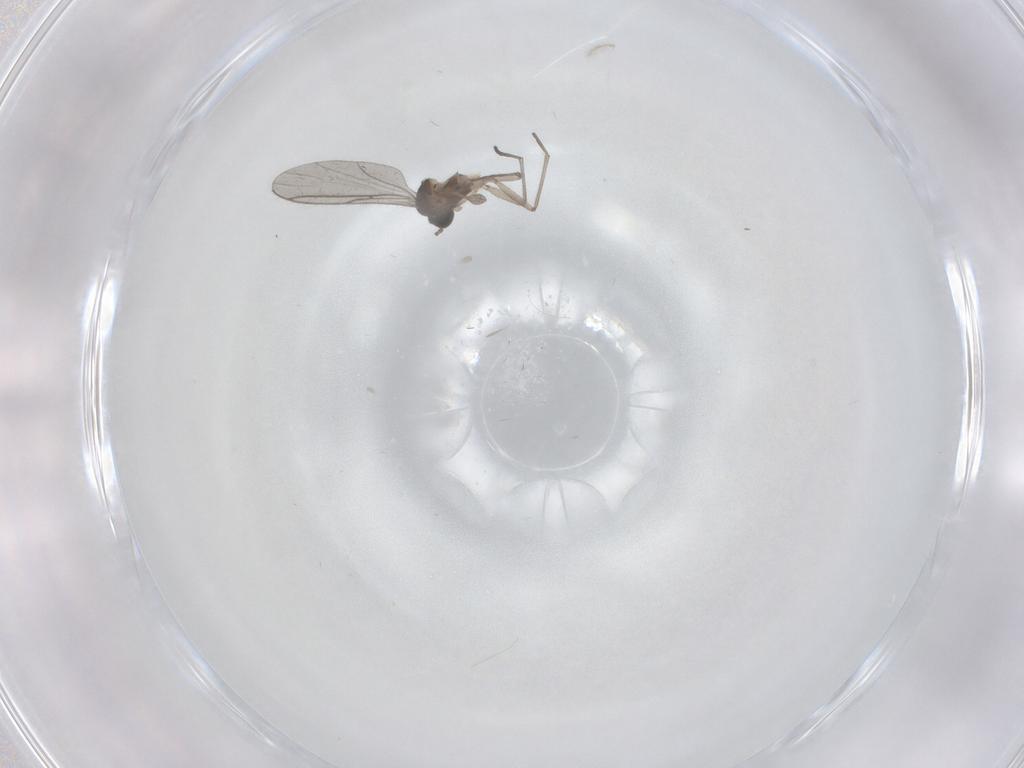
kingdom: Animalia
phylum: Arthropoda
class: Insecta
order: Diptera
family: Cecidomyiidae
